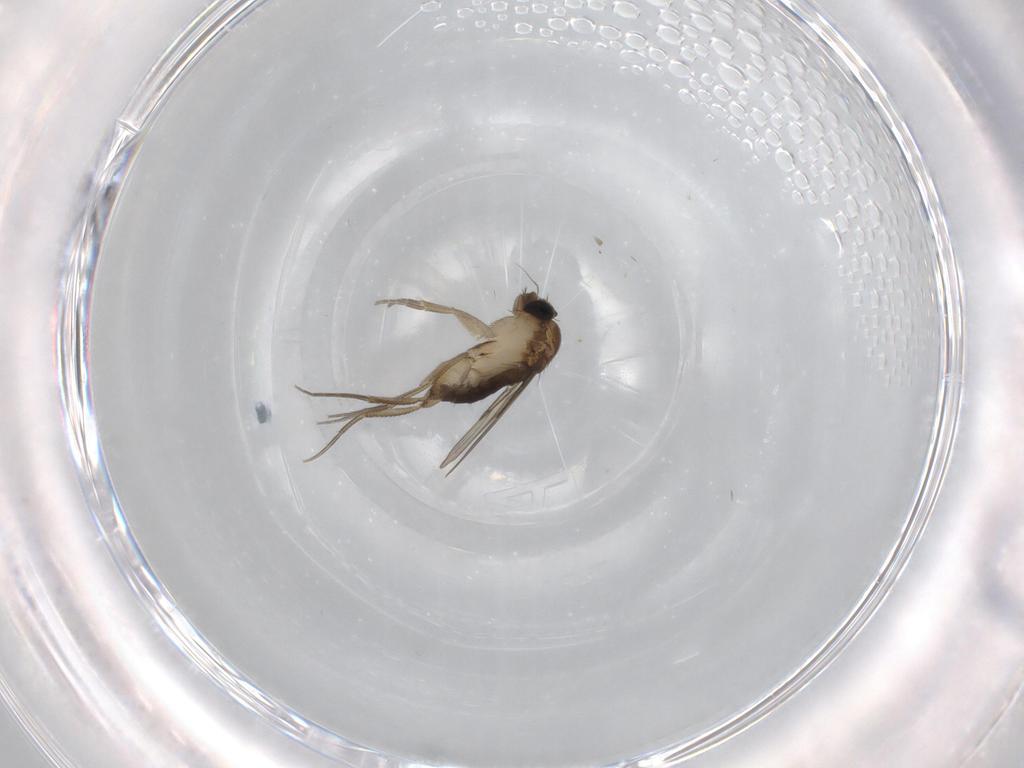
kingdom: Animalia
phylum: Arthropoda
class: Insecta
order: Diptera
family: Phoridae
